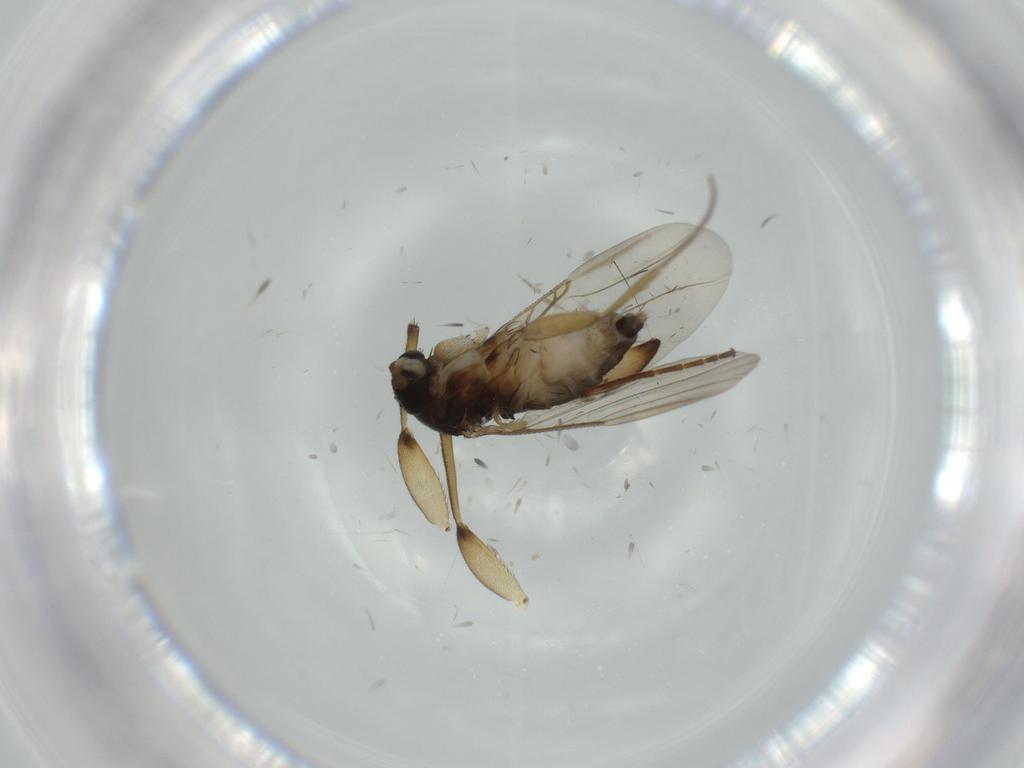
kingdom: Animalia
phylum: Arthropoda
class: Insecta
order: Diptera
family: Phoridae
